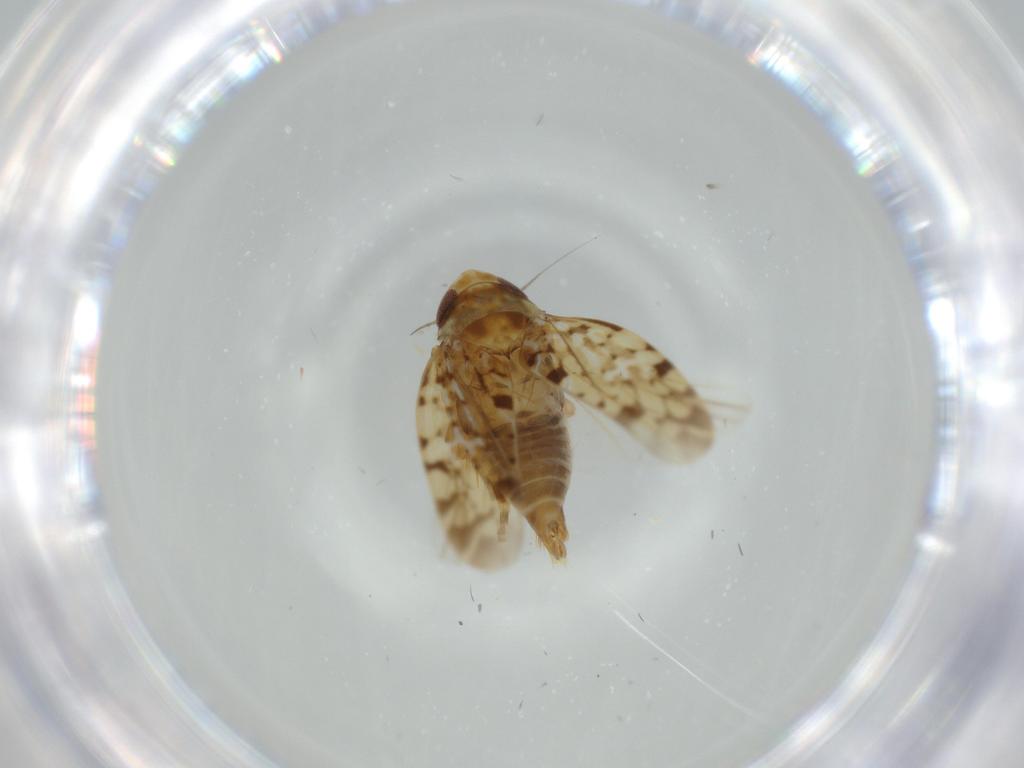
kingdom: Animalia
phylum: Arthropoda
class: Insecta
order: Hemiptera
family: Cicadellidae
